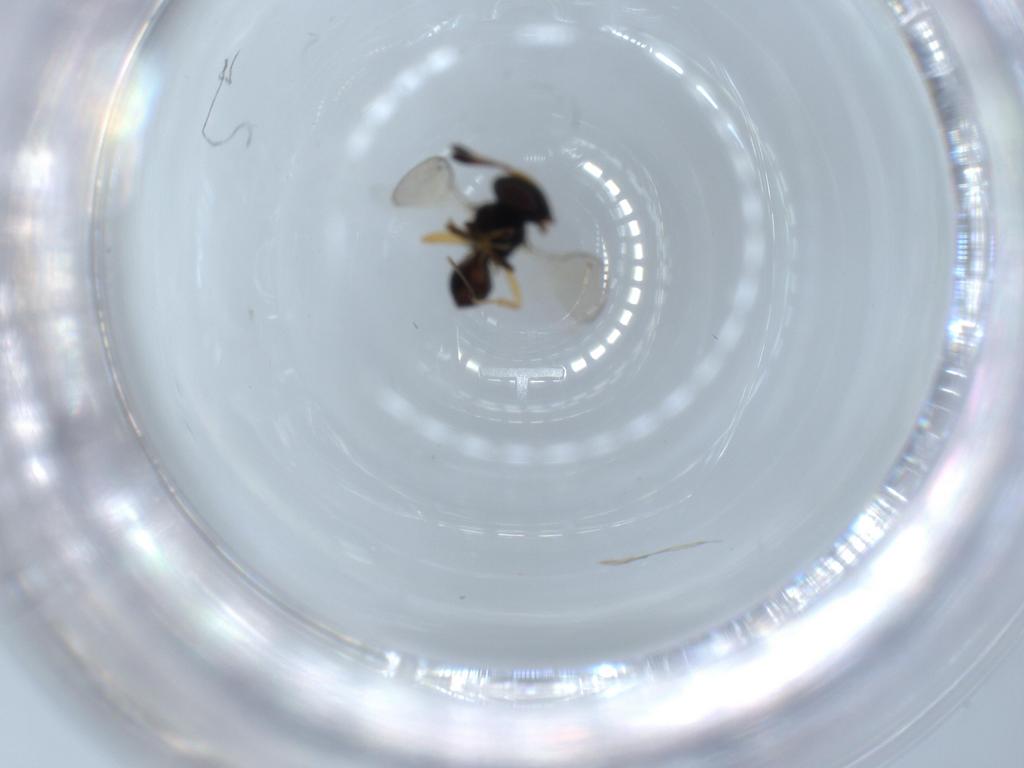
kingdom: Animalia
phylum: Arthropoda
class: Insecta
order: Hymenoptera
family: Pteromalidae
